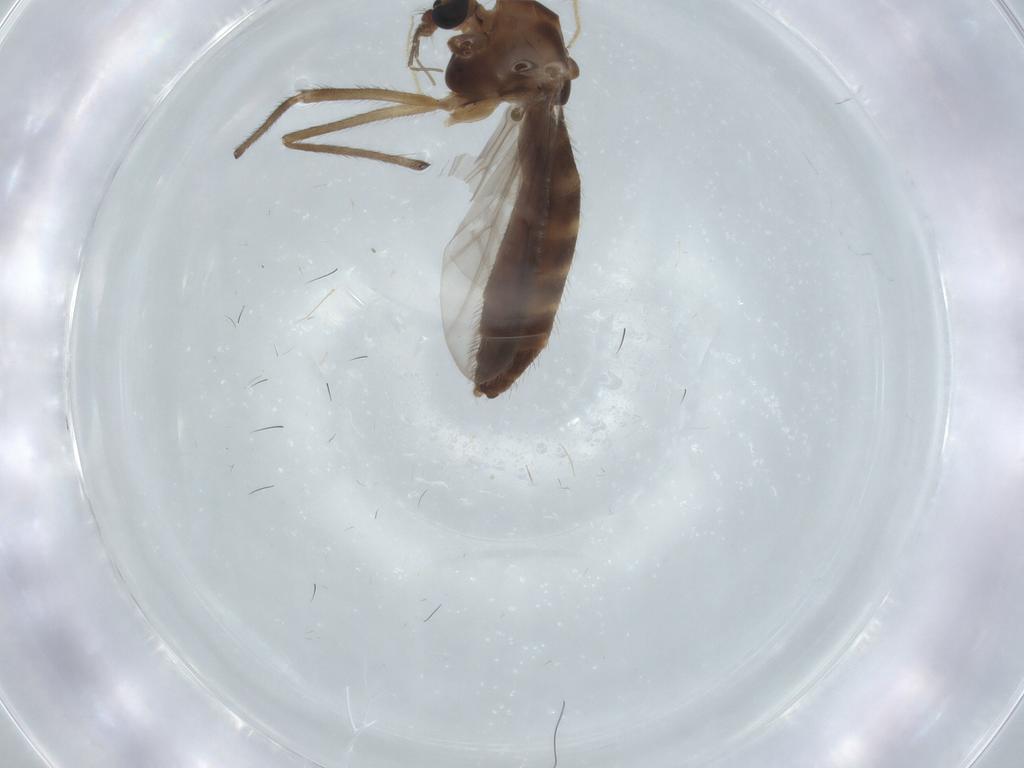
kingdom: Animalia
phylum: Arthropoda
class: Insecta
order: Diptera
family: Chironomidae
